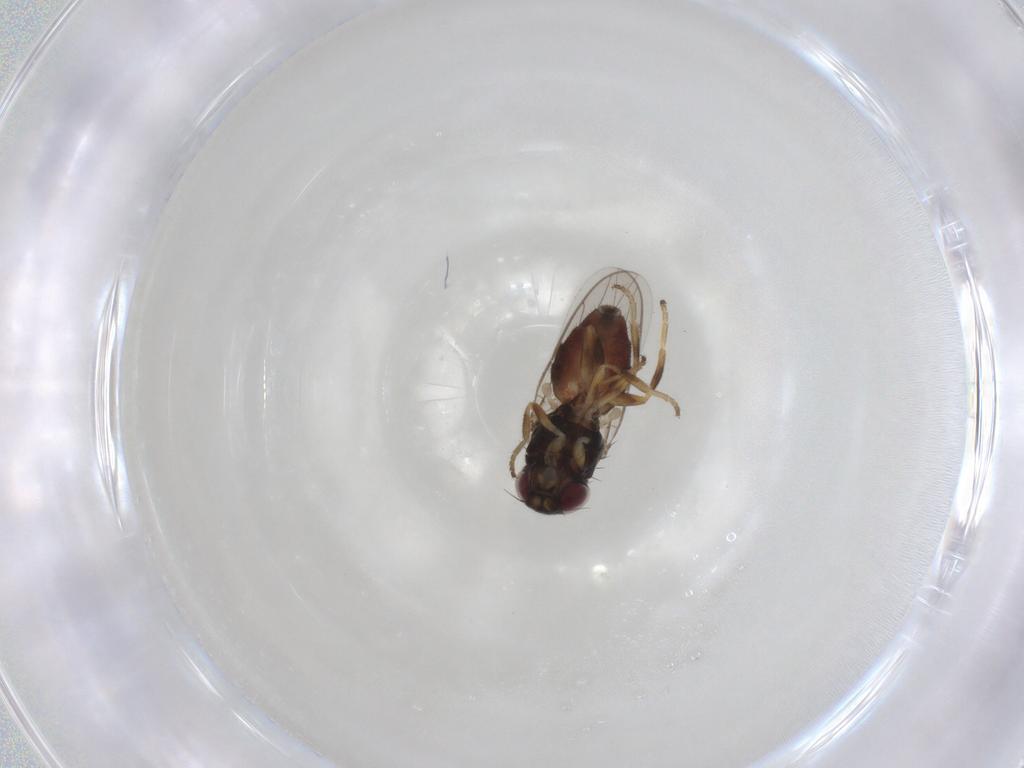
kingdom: Animalia
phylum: Arthropoda
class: Insecta
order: Diptera
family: Chloropidae
